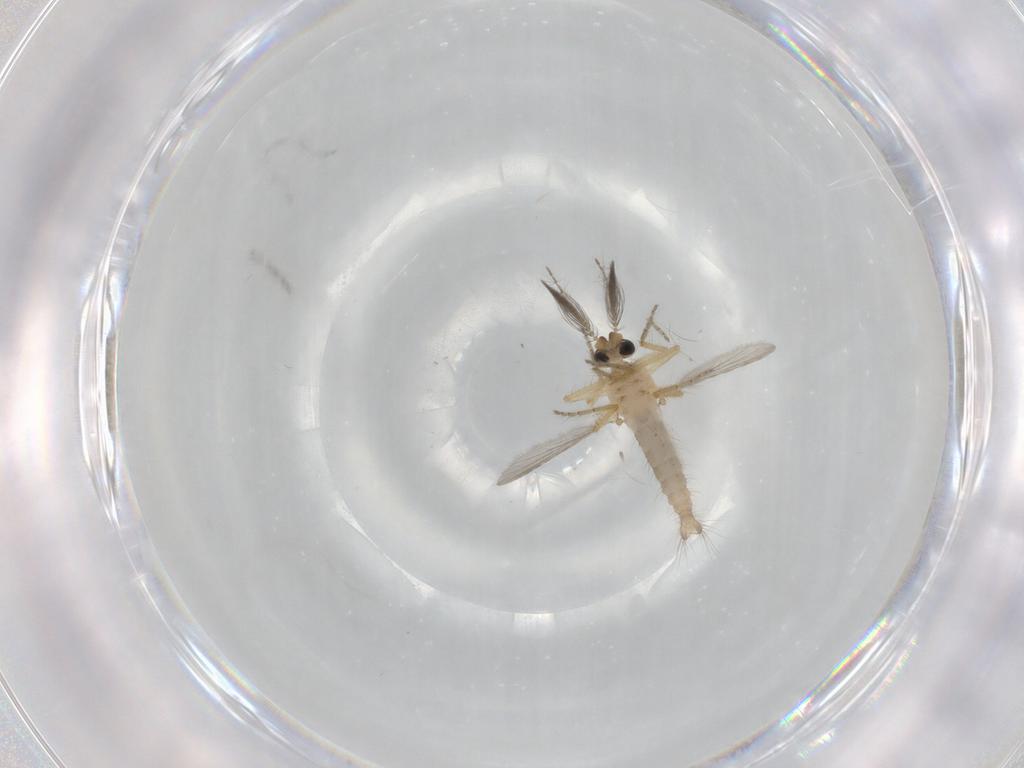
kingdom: Animalia
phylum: Arthropoda
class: Insecta
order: Diptera
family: Ceratopogonidae
